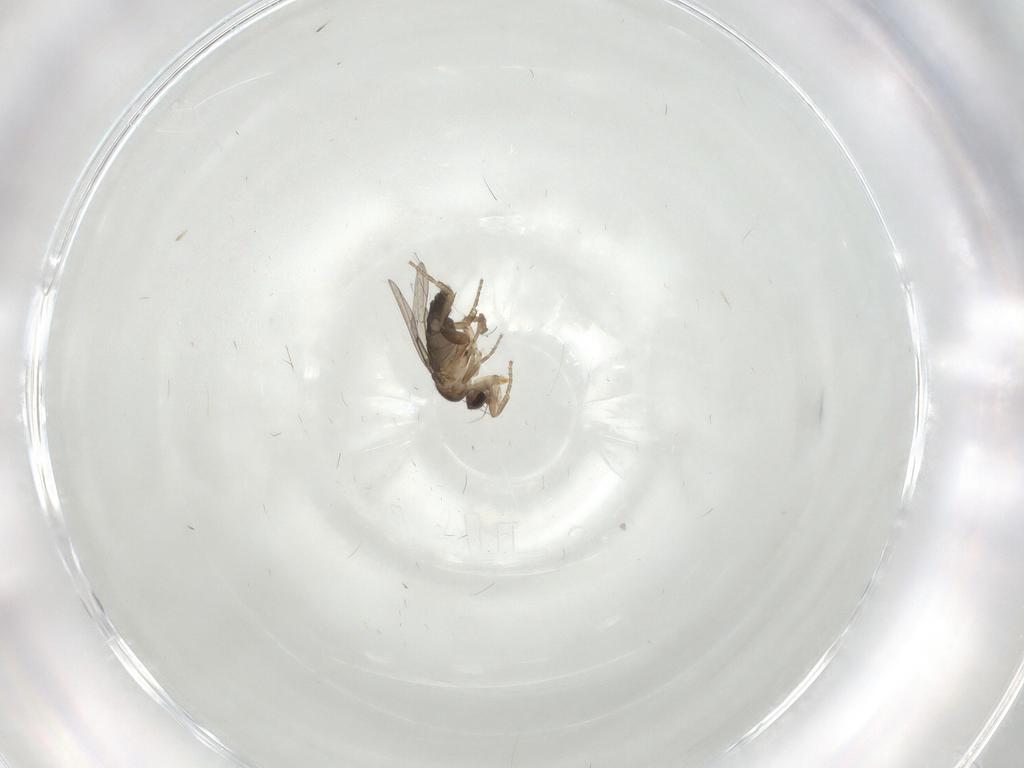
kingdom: Animalia
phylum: Arthropoda
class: Insecta
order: Diptera
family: Phoridae
